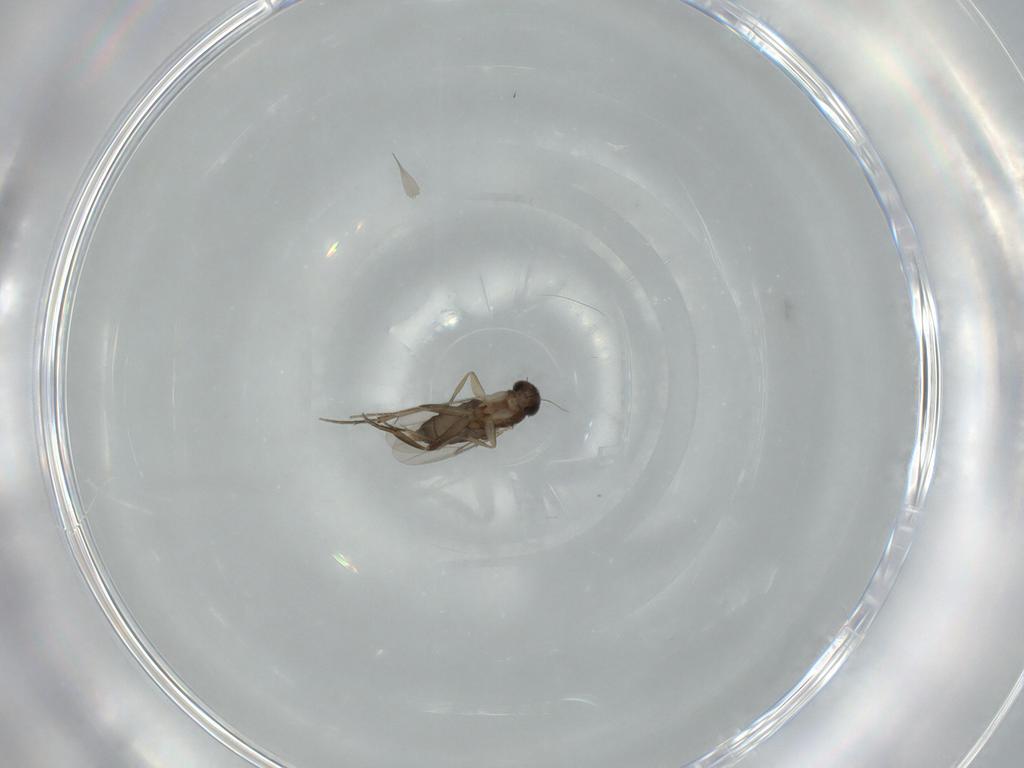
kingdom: Animalia
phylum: Arthropoda
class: Insecta
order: Diptera
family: Phoridae
